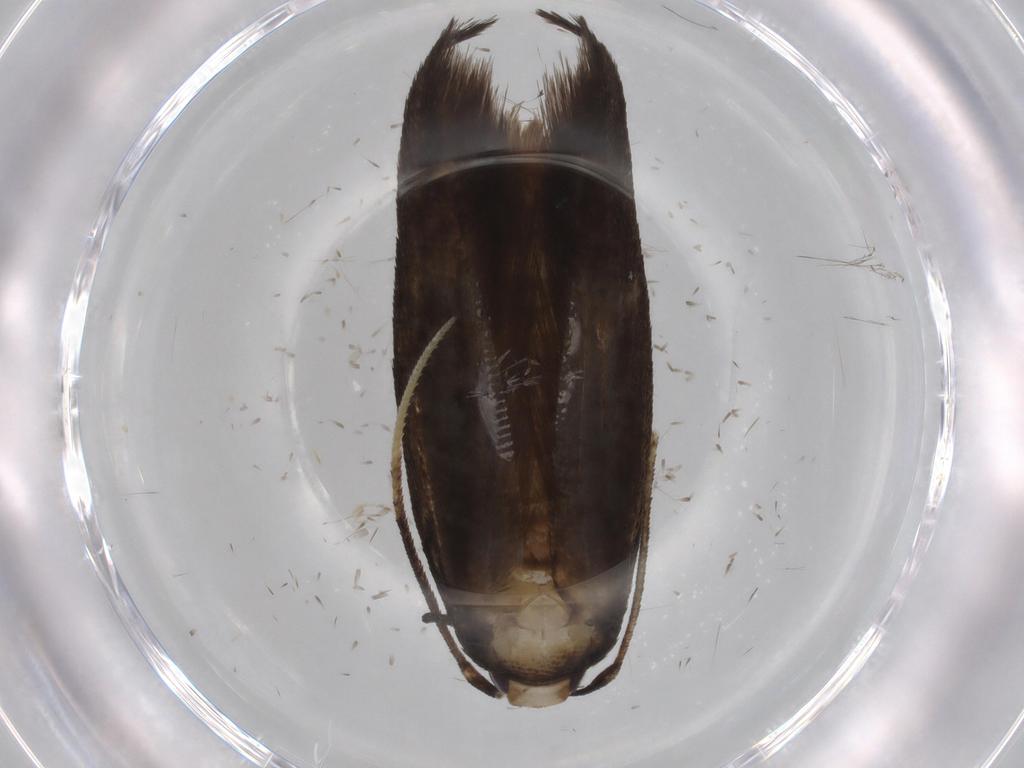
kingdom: Animalia
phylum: Arthropoda
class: Insecta
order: Lepidoptera
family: Gelechiidae
